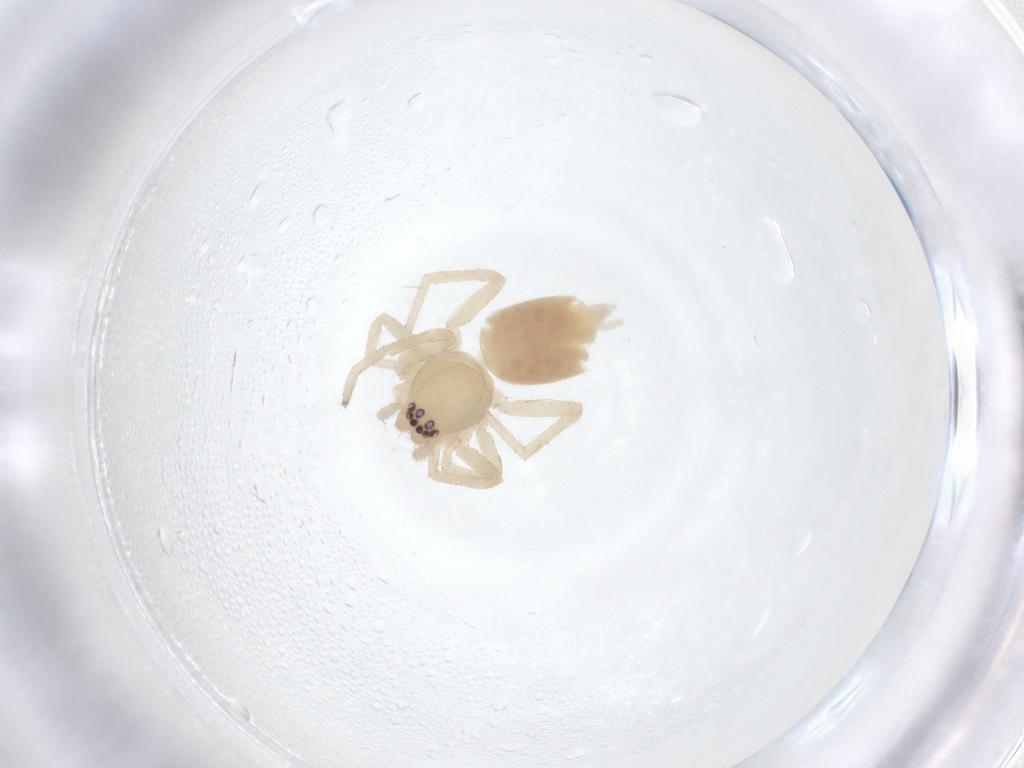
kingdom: Animalia
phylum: Arthropoda
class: Arachnida
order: Araneae
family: Clubionidae
